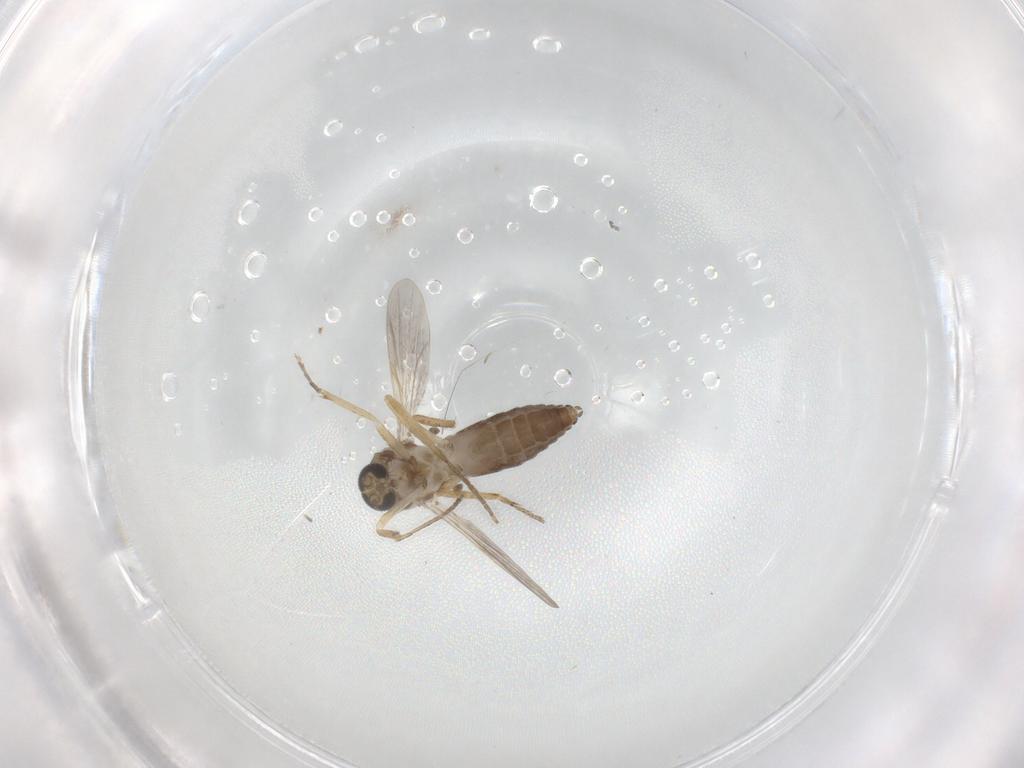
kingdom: Animalia
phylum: Arthropoda
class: Insecta
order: Diptera
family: Ceratopogonidae
